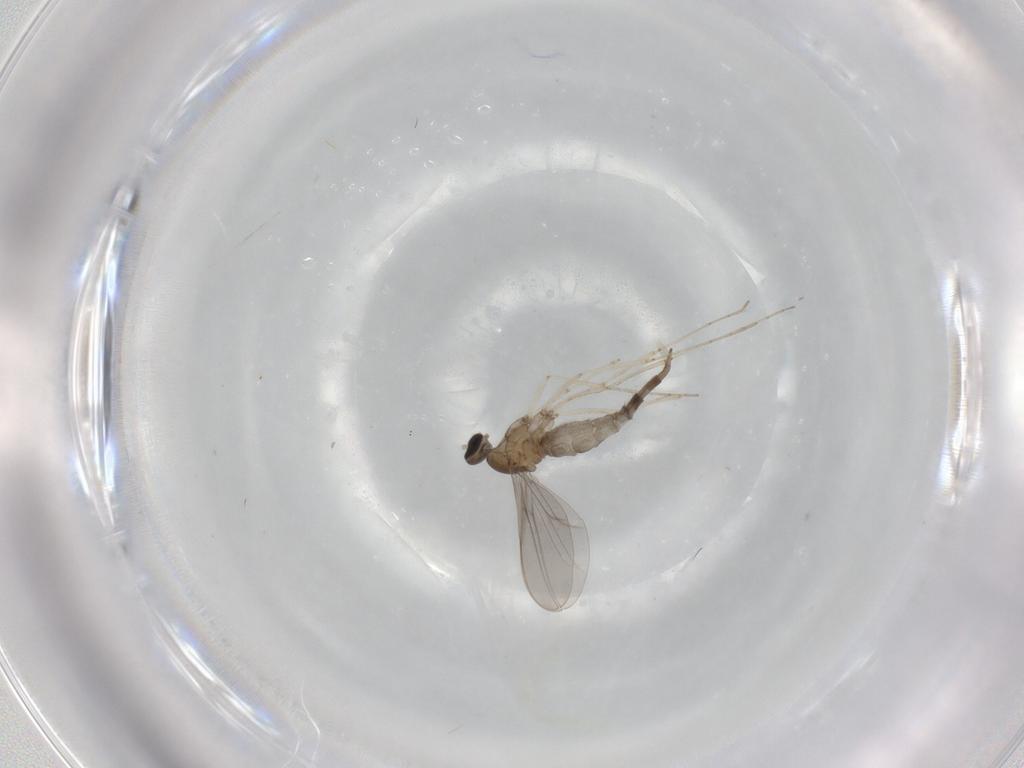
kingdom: Animalia
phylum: Arthropoda
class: Insecta
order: Diptera
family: Cecidomyiidae
